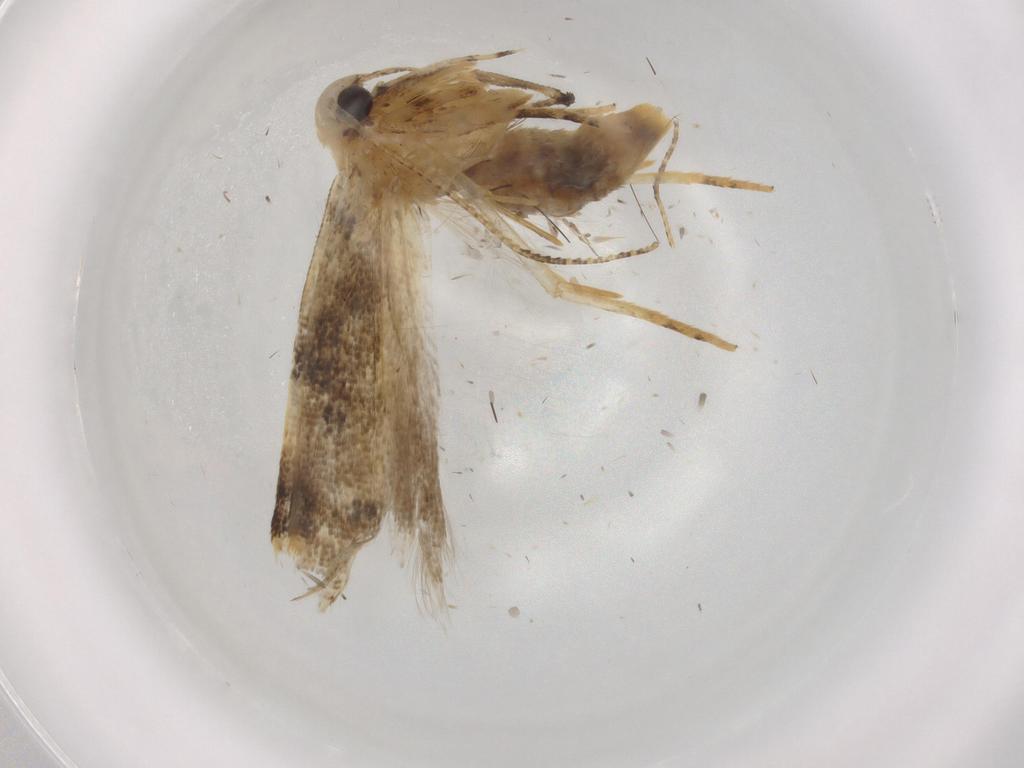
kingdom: Animalia
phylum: Arthropoda
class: Insecta
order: Lepidoptera
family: Gelechiidae
